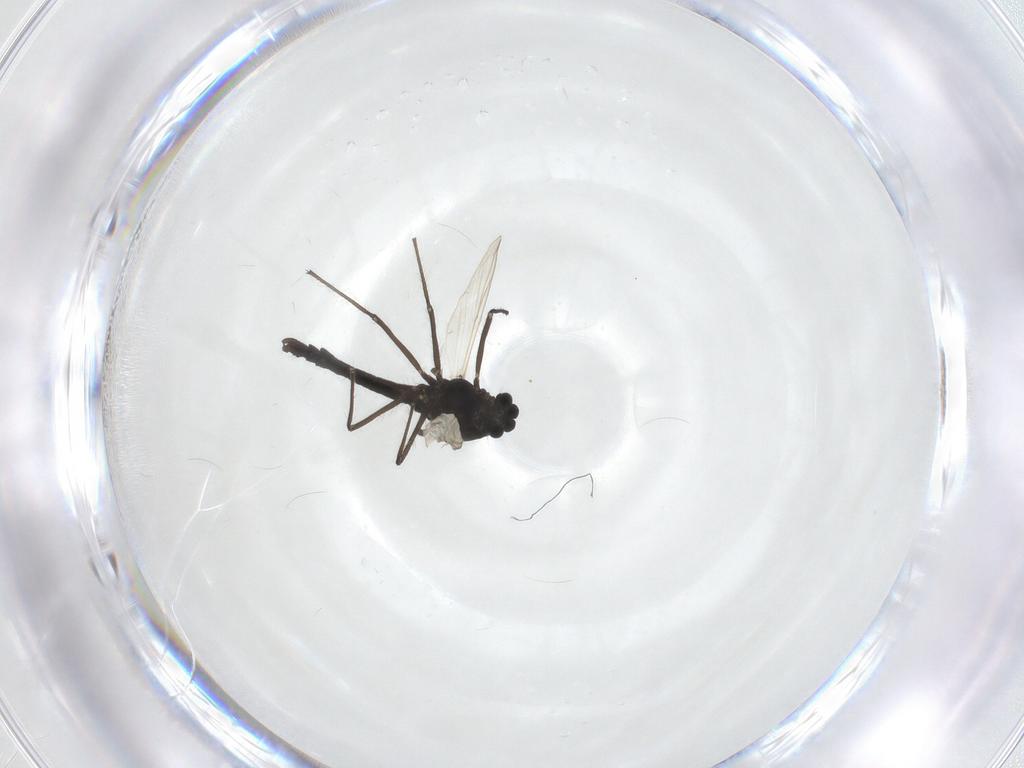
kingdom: Animalia
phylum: Arthropoda
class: Insecta
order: Diptera
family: Chironomidae
